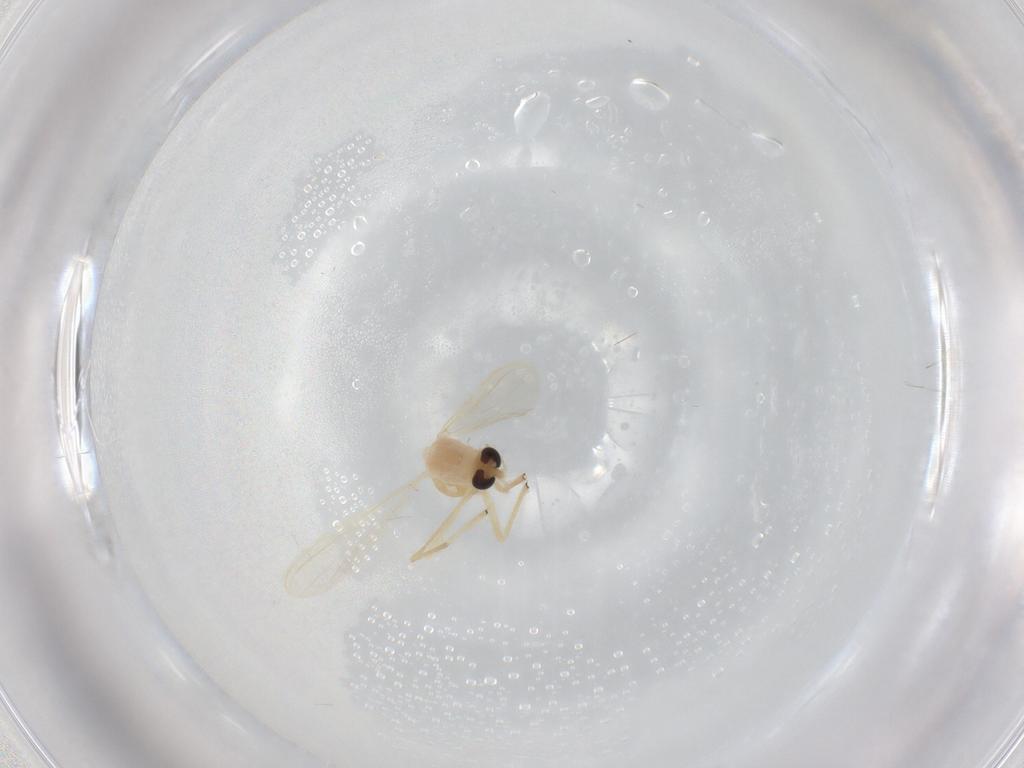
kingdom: Animalia
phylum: Arthropoda
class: Insecta
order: Diptera
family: Chironomidae
